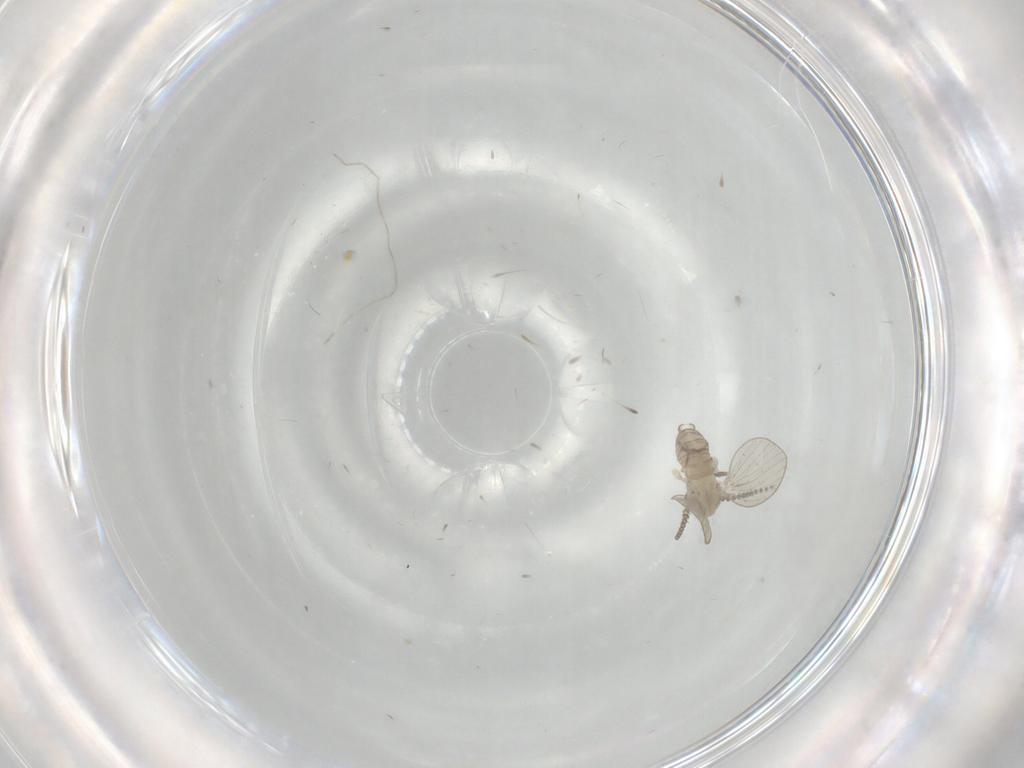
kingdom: Animalia
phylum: Arthropoda
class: Insecta
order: Diptera
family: Psychodidae
